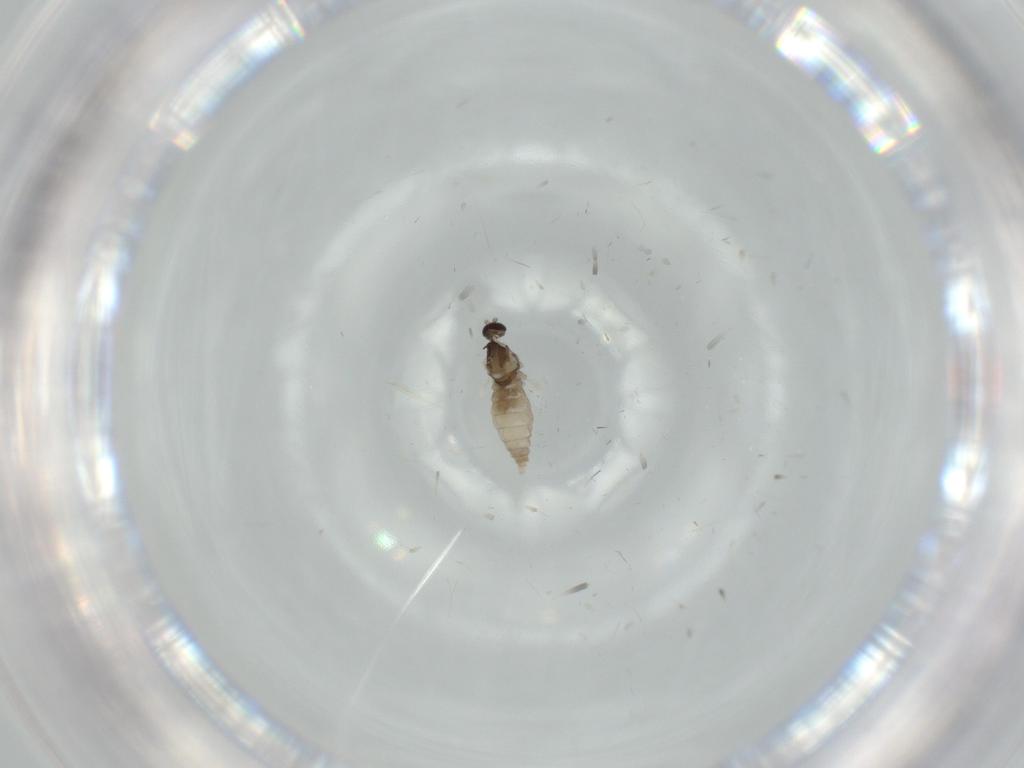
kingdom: Animalia
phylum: Arthropoda
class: Insecta
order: Diptera
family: Cecidomyiidae
